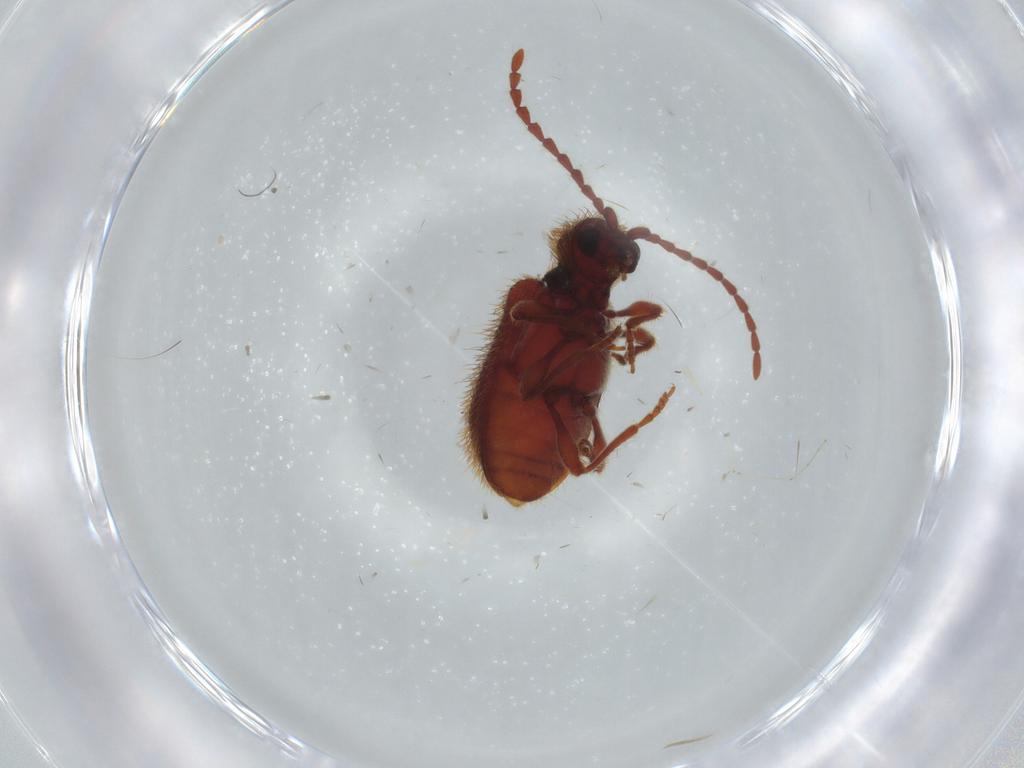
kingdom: Animalia
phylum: Arthropoda
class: Insecta
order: Coleoptera
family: Ptinidae
